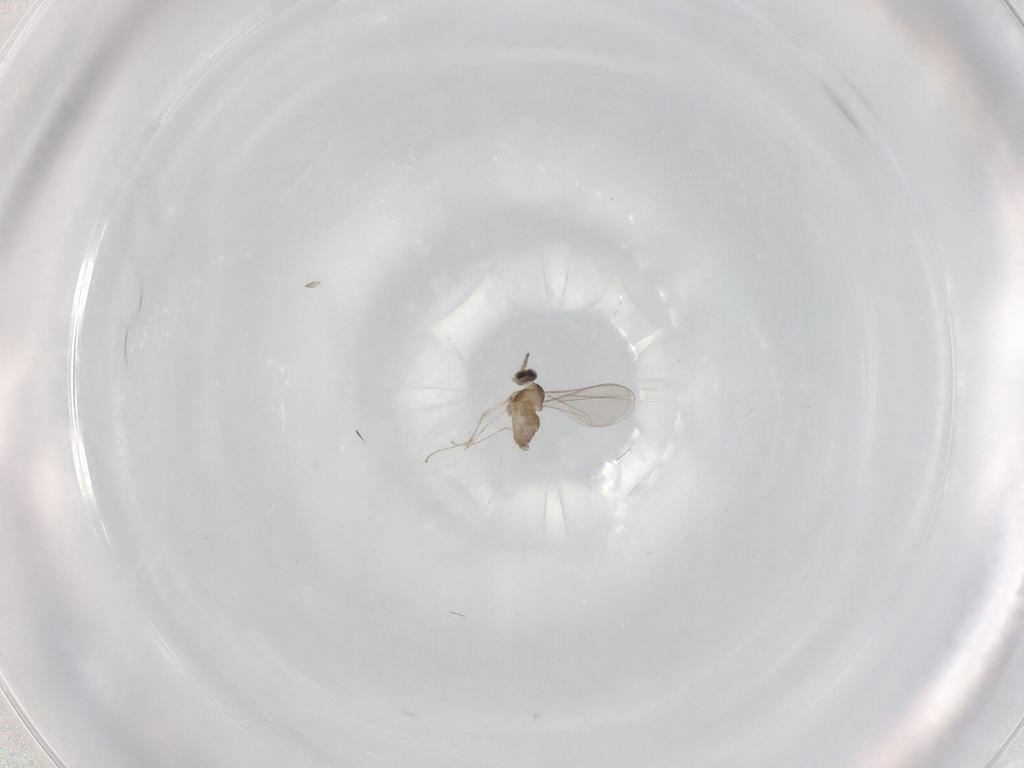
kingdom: Animalia
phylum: Arthropoda
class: Insecta
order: Diptera
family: Cecidomyiidae
